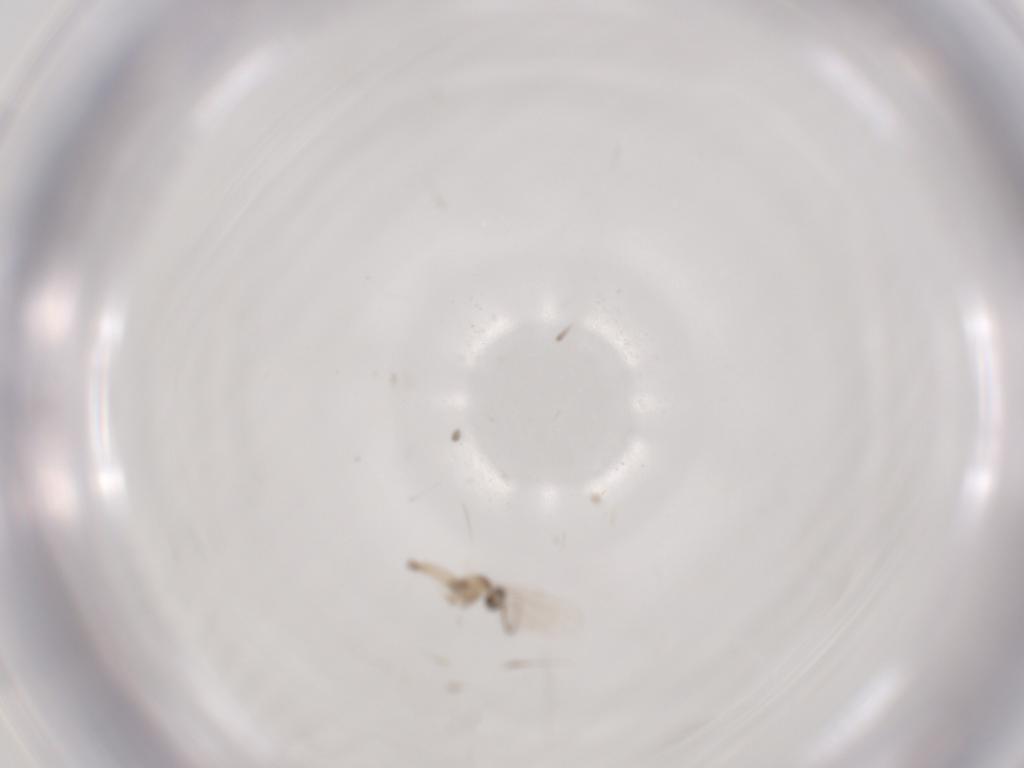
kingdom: Animalia
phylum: Arthropoda
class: Insecta
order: Diptera
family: Cecidomyiidae
